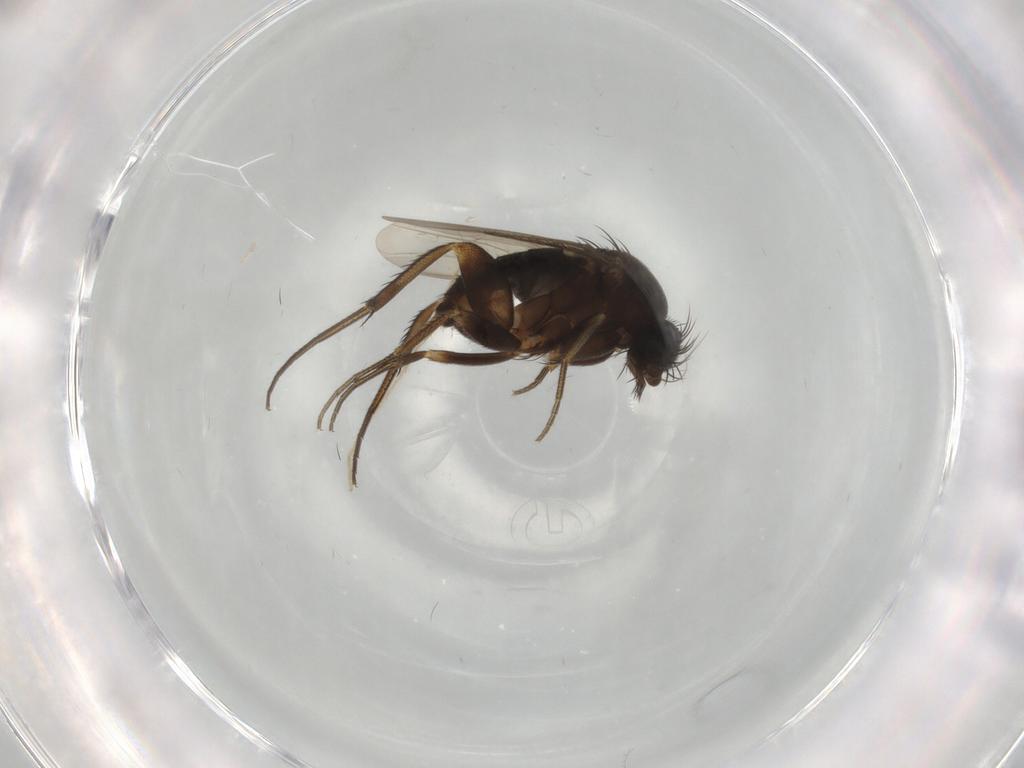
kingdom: Animalia
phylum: Arthropoda
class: Insecta
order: Diptera
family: Phoridae
